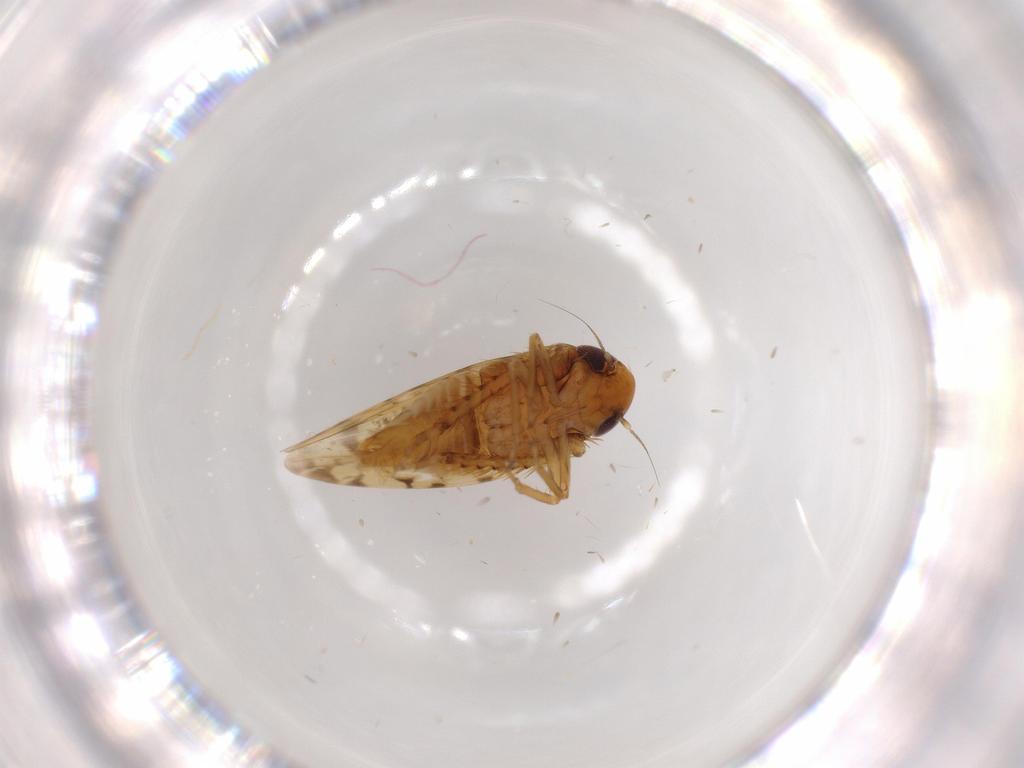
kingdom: Animalia
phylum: Arthropoda
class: Insecta
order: Hemiptera
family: Cicadellidae
